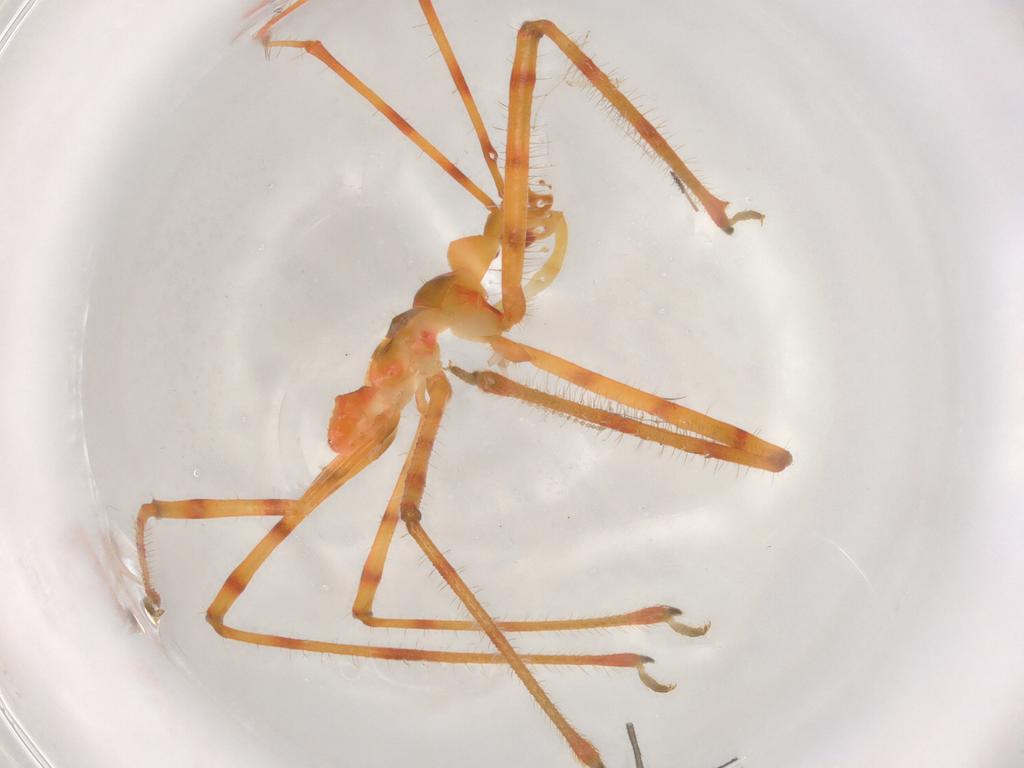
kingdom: Animalia
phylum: Arthropoda
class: Insecta
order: Hemiptera
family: Reduviidae
